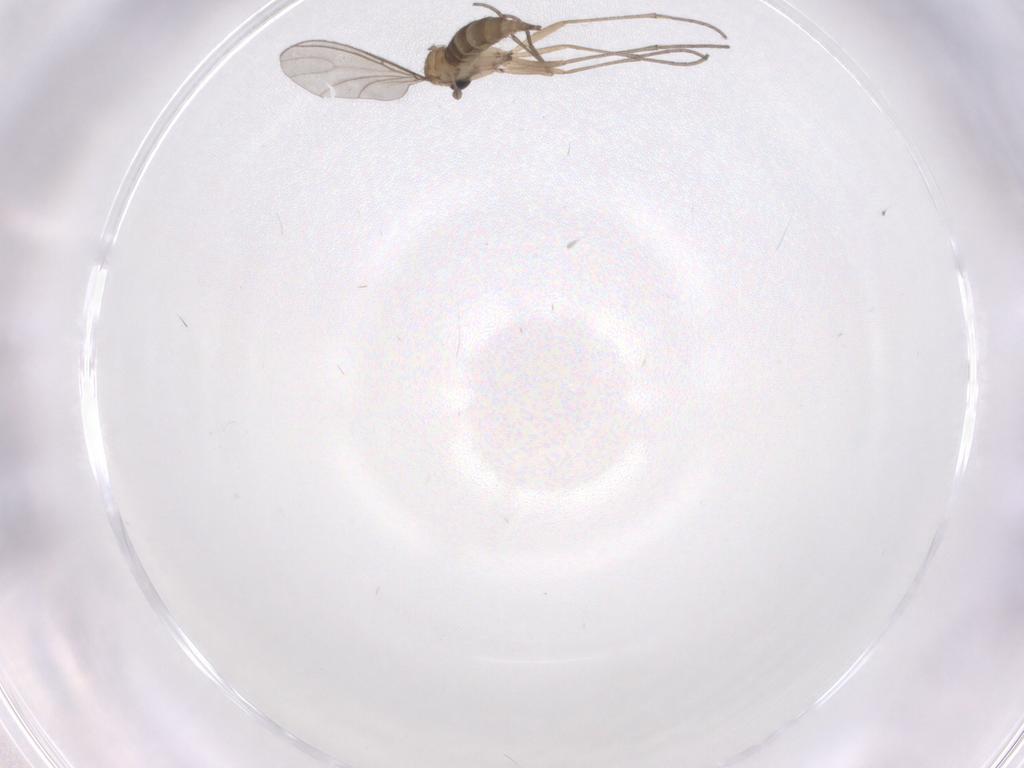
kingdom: Animalia
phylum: Arthropoda
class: Insecta
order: Diptera
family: Sciaridae
